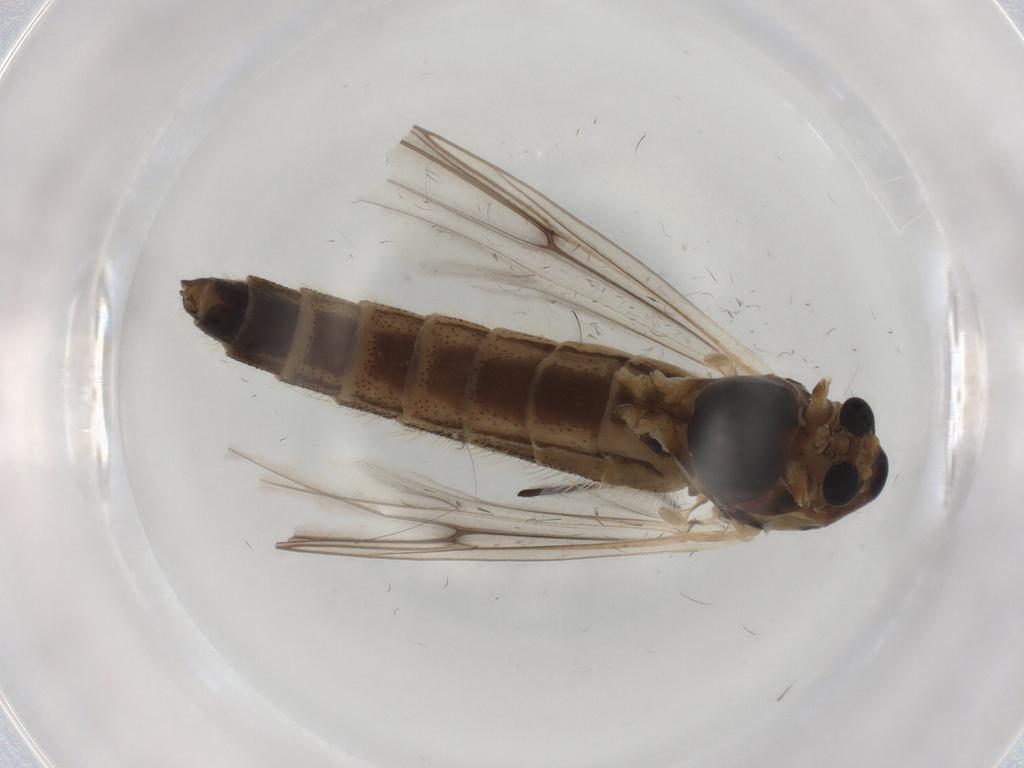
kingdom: Animalia
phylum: Arthropoda
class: Insecta
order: Diptera
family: Chironomidae
